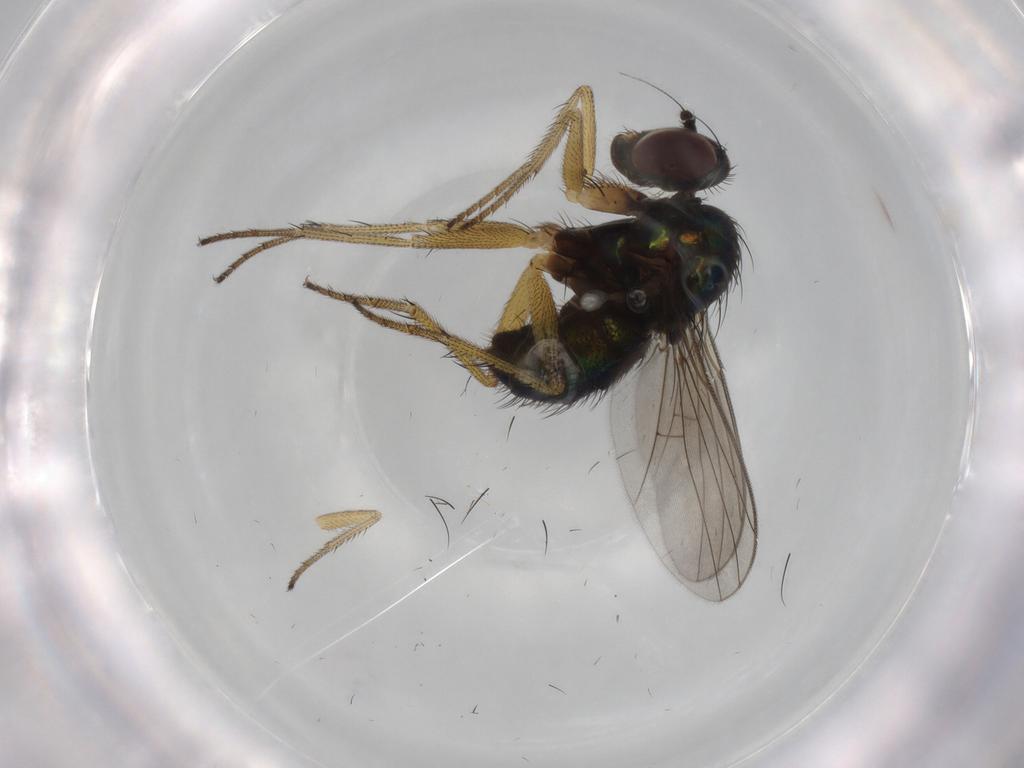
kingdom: Animalia
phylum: Arthropoda
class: Insecta
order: Diptera
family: Dolichopodidae
